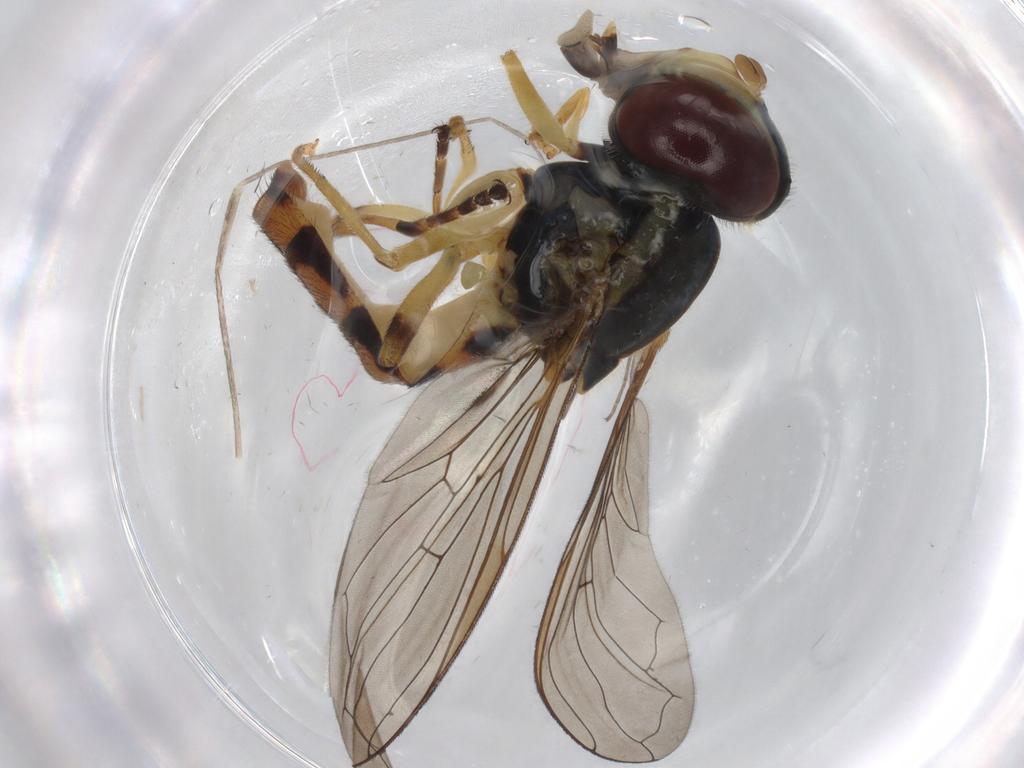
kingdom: Animalia
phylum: Arthropoda
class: Insecta
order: Diptera
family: Syrphidae
